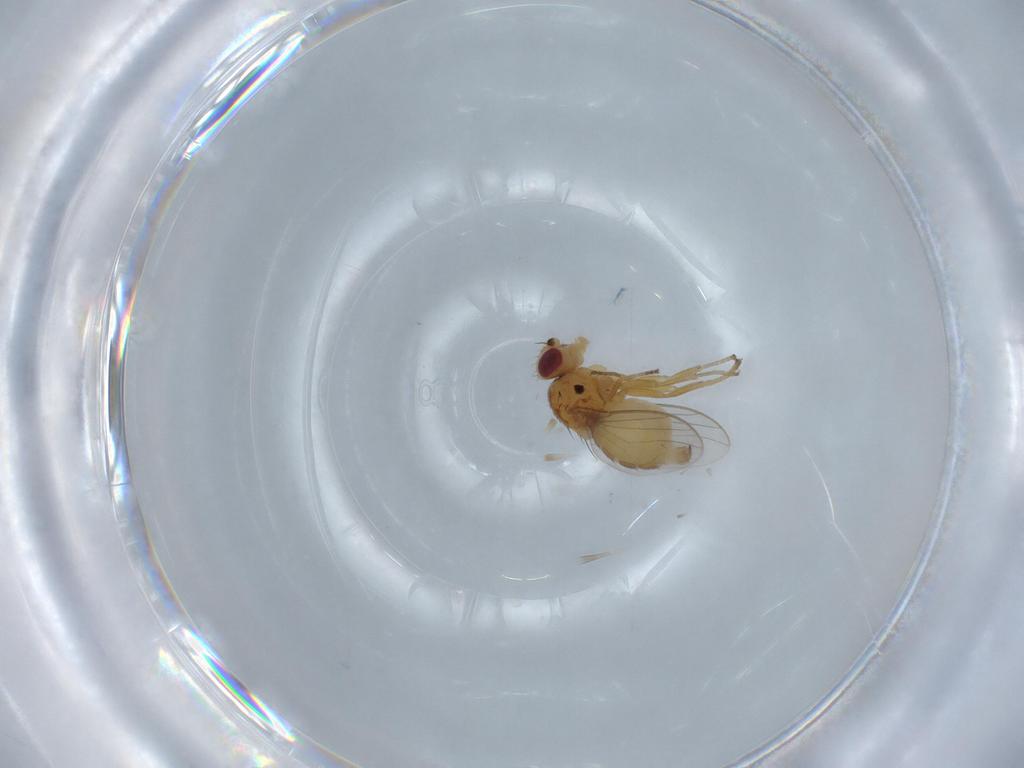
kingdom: Animalia
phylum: Arthropoda
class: Insecta
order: Diptera
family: Chloropidae
